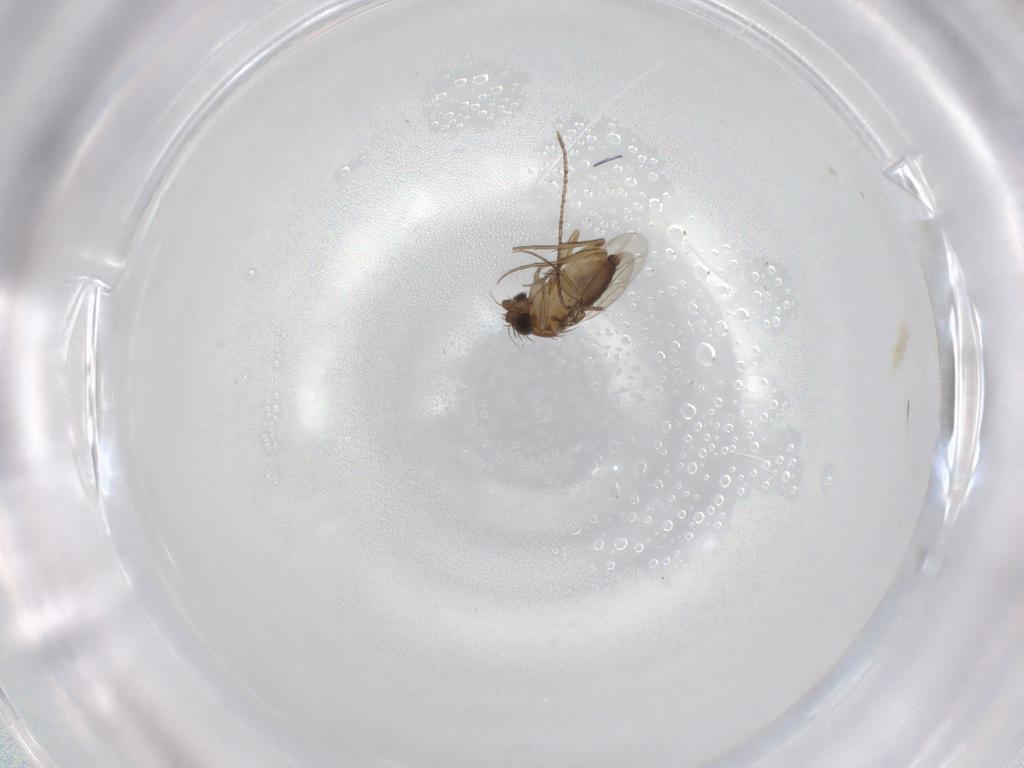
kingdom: Animalia
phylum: Arthropoda
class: Insecta
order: Diptera
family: Phoridae
